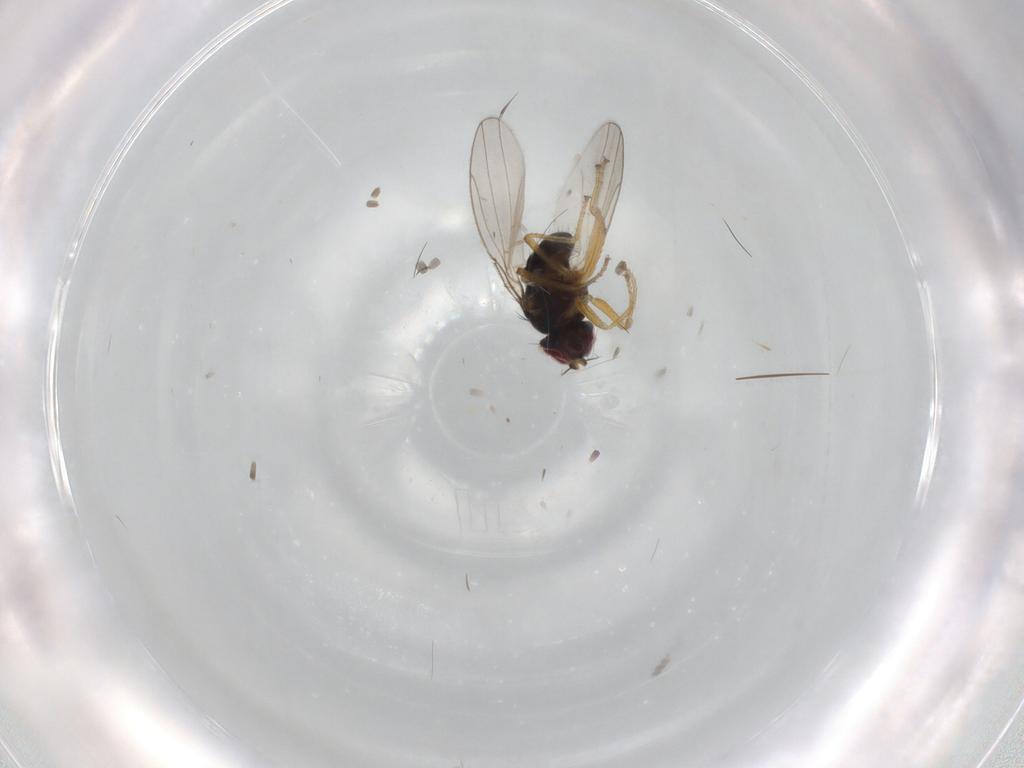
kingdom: Animalia
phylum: Arthropoda
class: Insecta
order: Diptera
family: Ephydridae
